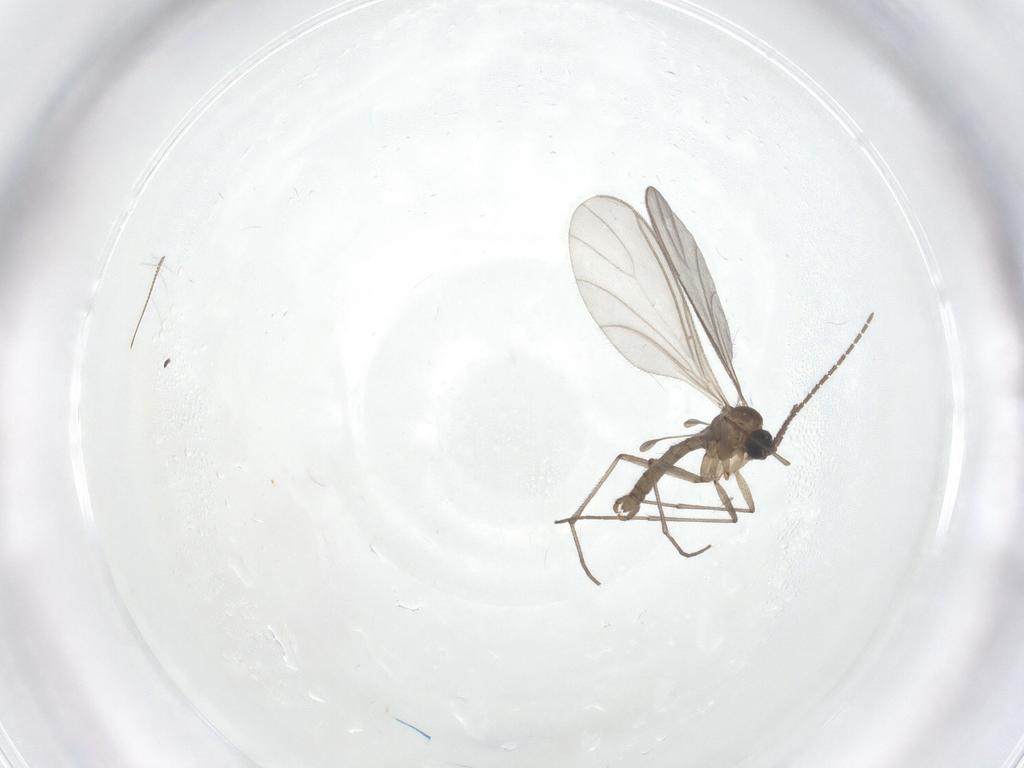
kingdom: Animalia
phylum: Arthropoda
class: Insecta
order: Diptera
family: Sciaridae
